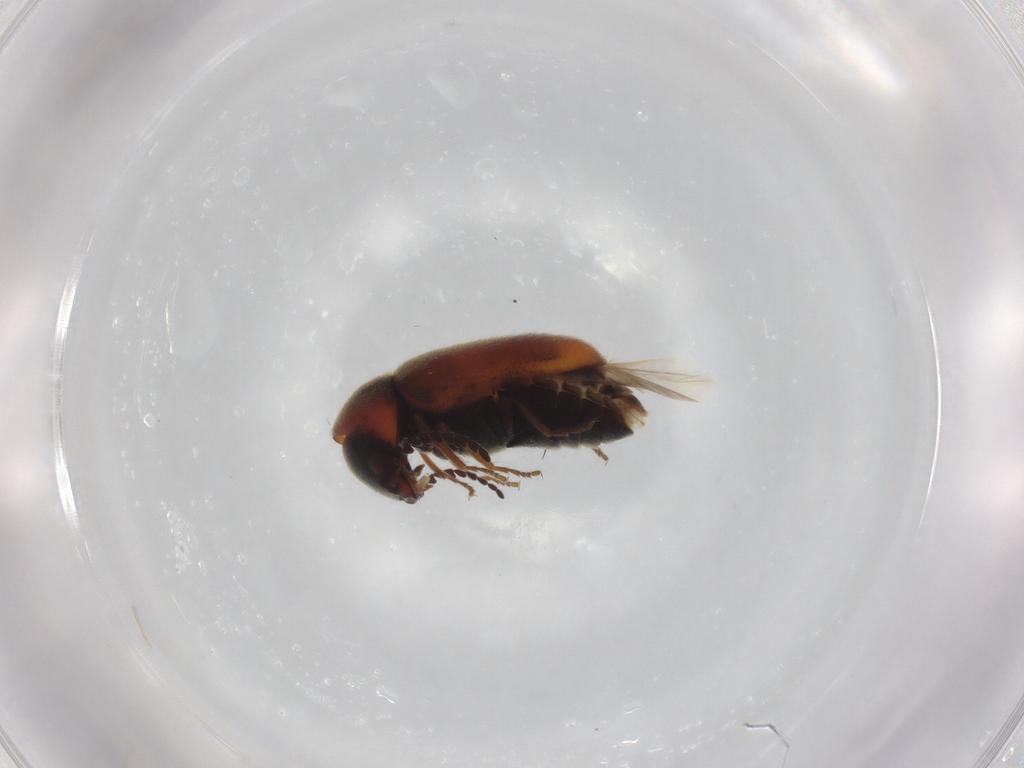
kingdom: Animalia
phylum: Arthropoda
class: Insecta
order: Coleoptera
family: Ptinidae
